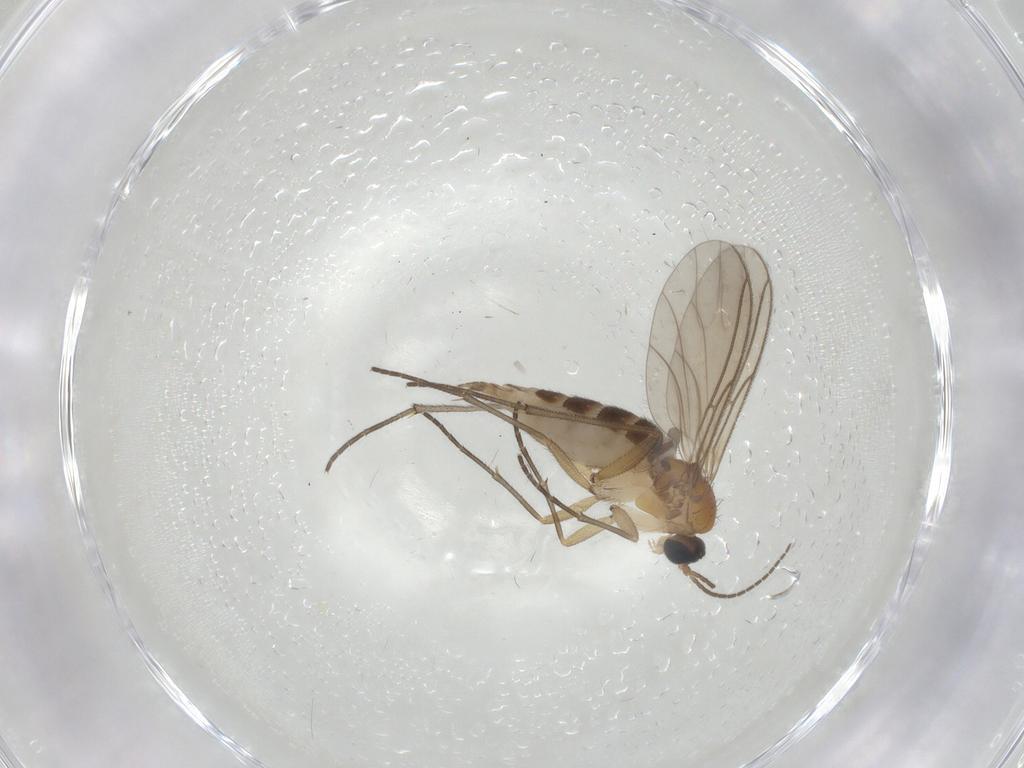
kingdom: Animalia
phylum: Arthropoda
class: Insecta
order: Diptera
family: Sciaridae
